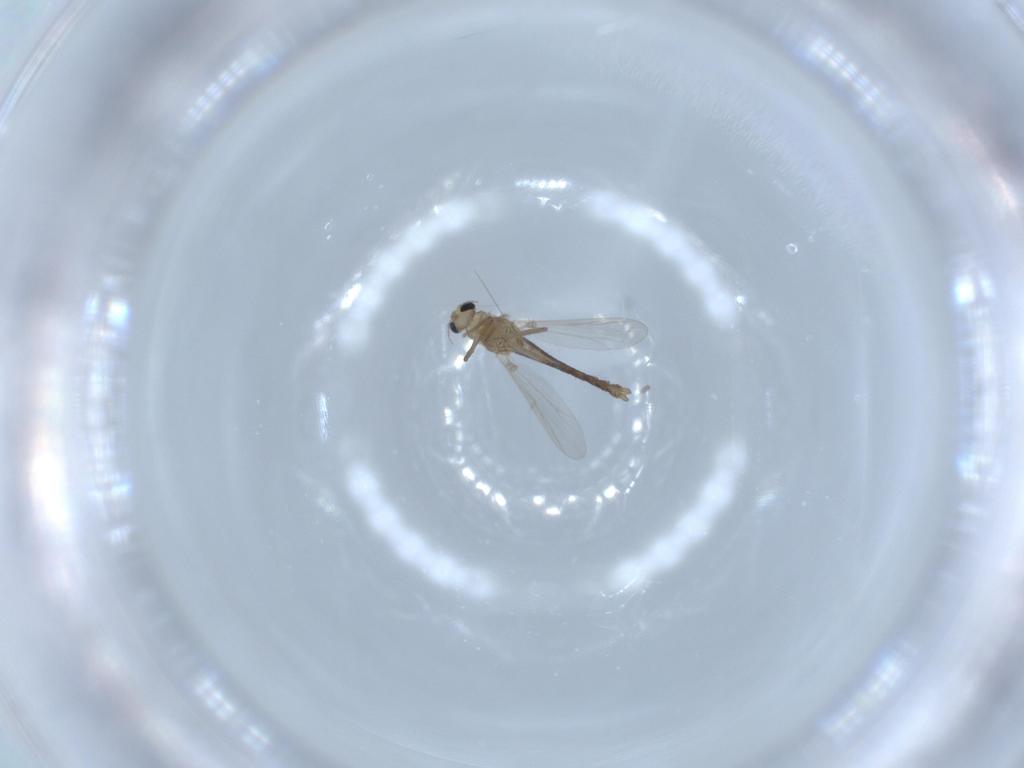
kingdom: Animalia
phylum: Arthropoda
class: Insecta
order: Diptera
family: Chironomidae
